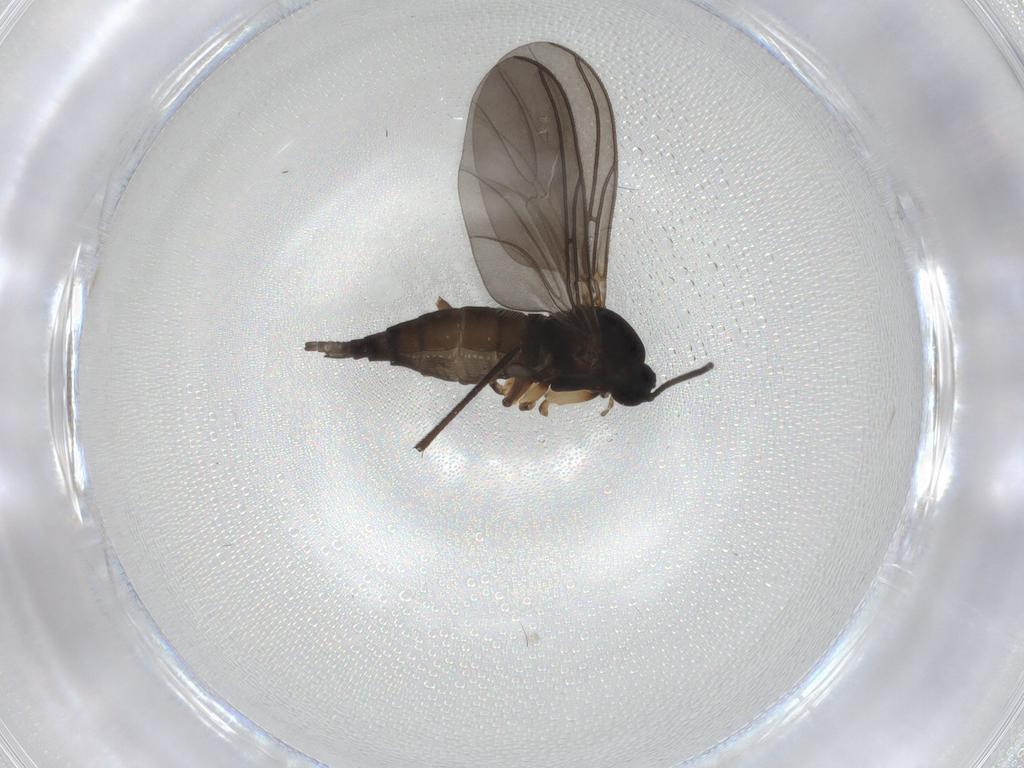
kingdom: Animalia
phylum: Arthropoda
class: Insecta
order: Diptera
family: Sciaridae
